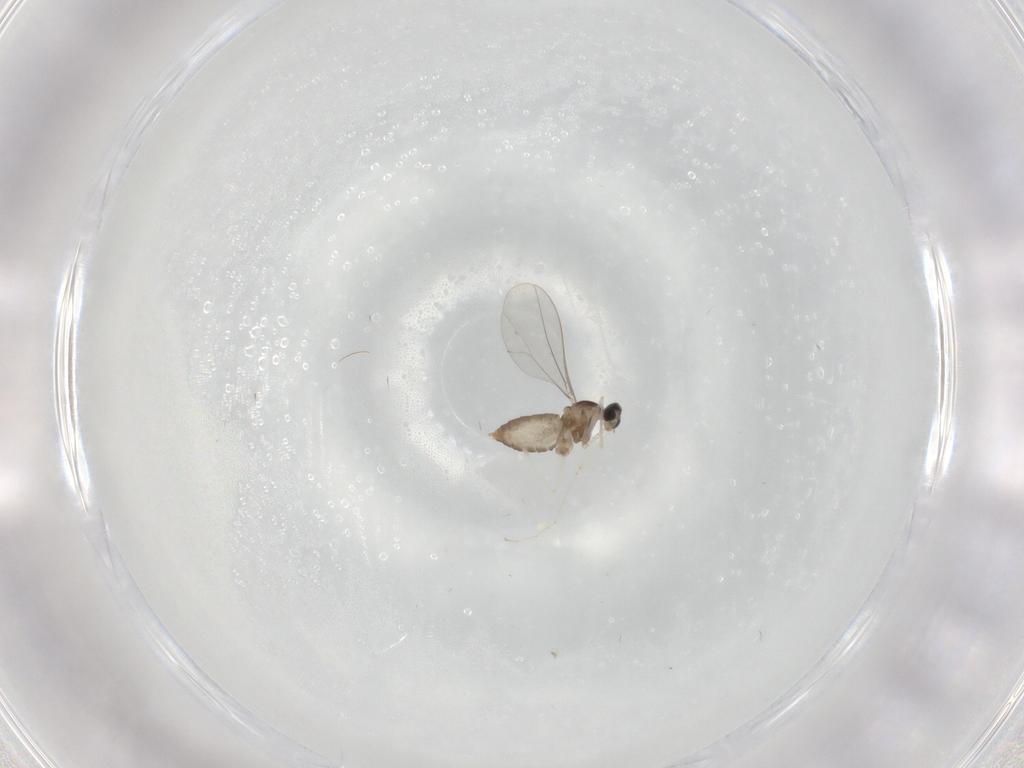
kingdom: Animalia
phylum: Arthropoda
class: Insecta
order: Diptera
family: Cecidomyiidae
